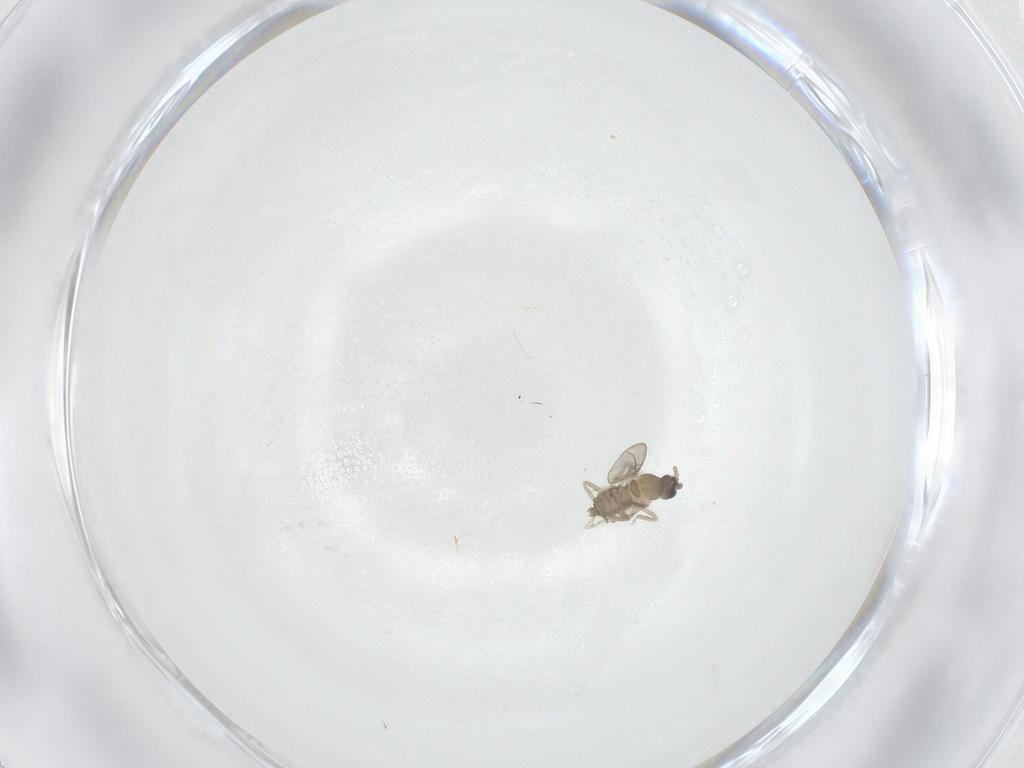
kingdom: Animalia
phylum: Arthropoda
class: Insecta
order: Diptera
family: Cecidomyiidae
